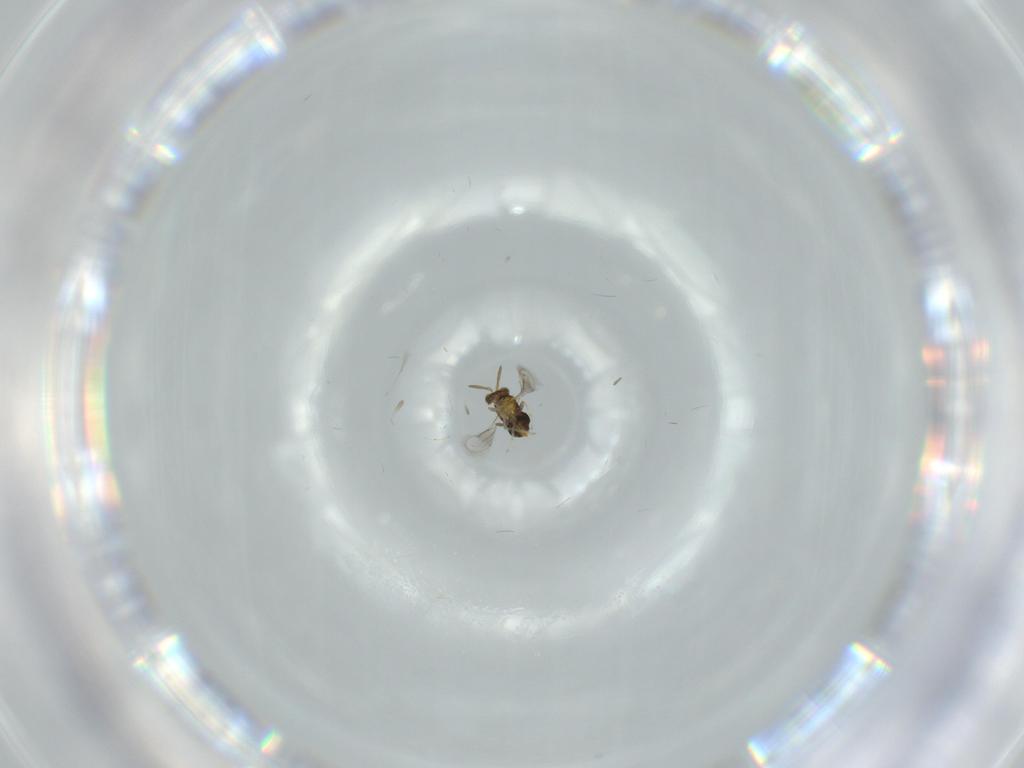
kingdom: Animalia
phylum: Arthropoda
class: Insecta
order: Hymenoptera
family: Aphelinidae
